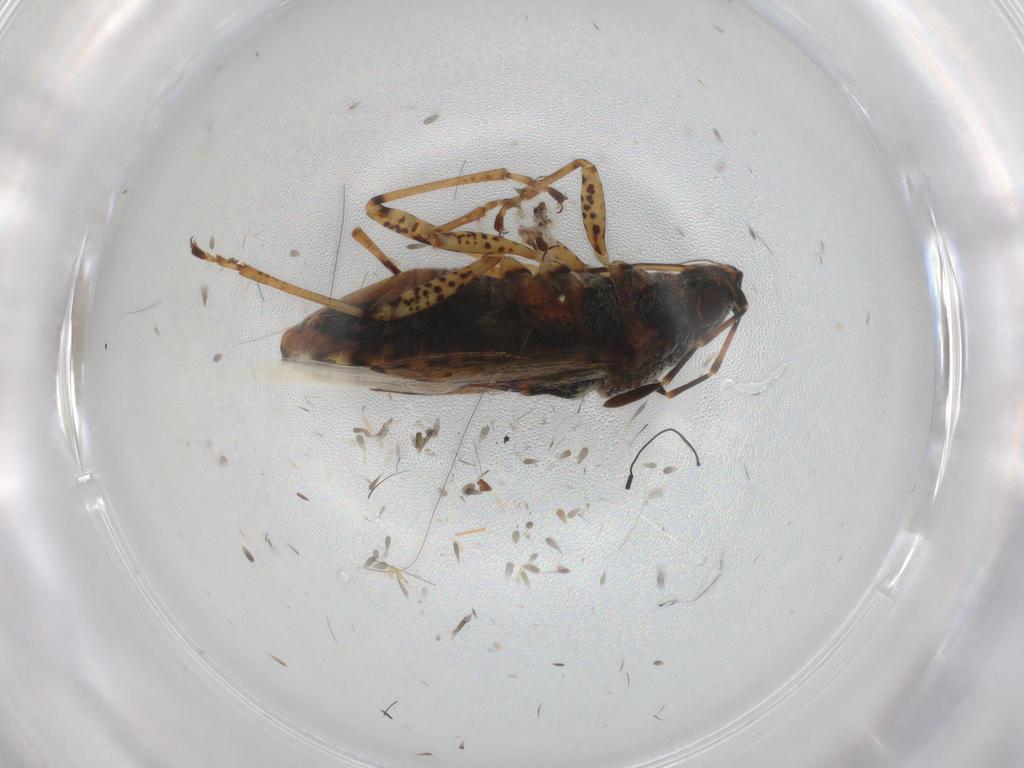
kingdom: Animalia
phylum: Arthropoda
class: Insecta
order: Hemiptera
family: Lygaeidae
